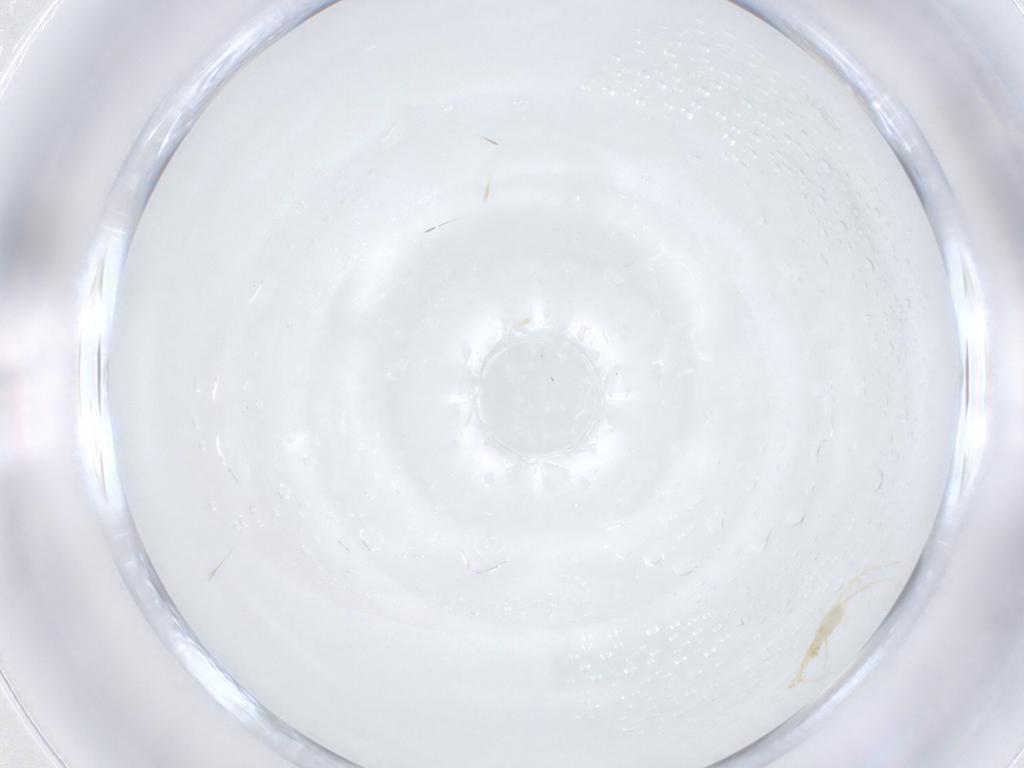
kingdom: Animalia
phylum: Arthropoda
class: Arachnida
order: Trombidiformes
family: Erythraeidae
